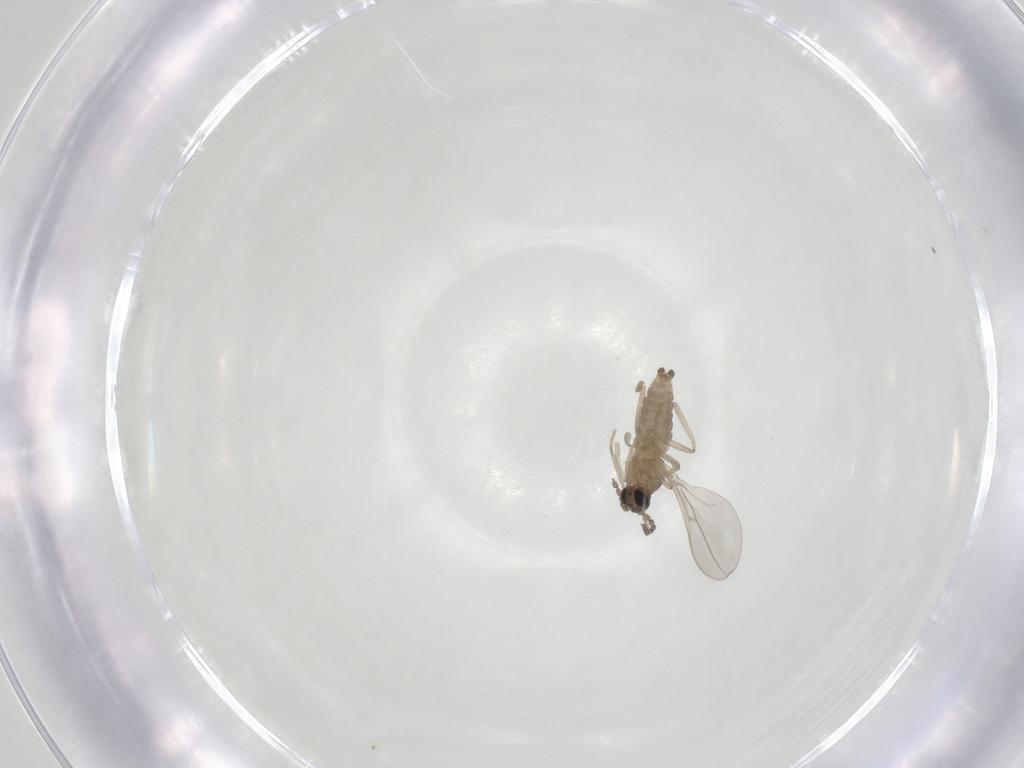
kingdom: Animalia
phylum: Arthropoda
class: Insecta
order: Diptera
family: Cecidomyiidae
